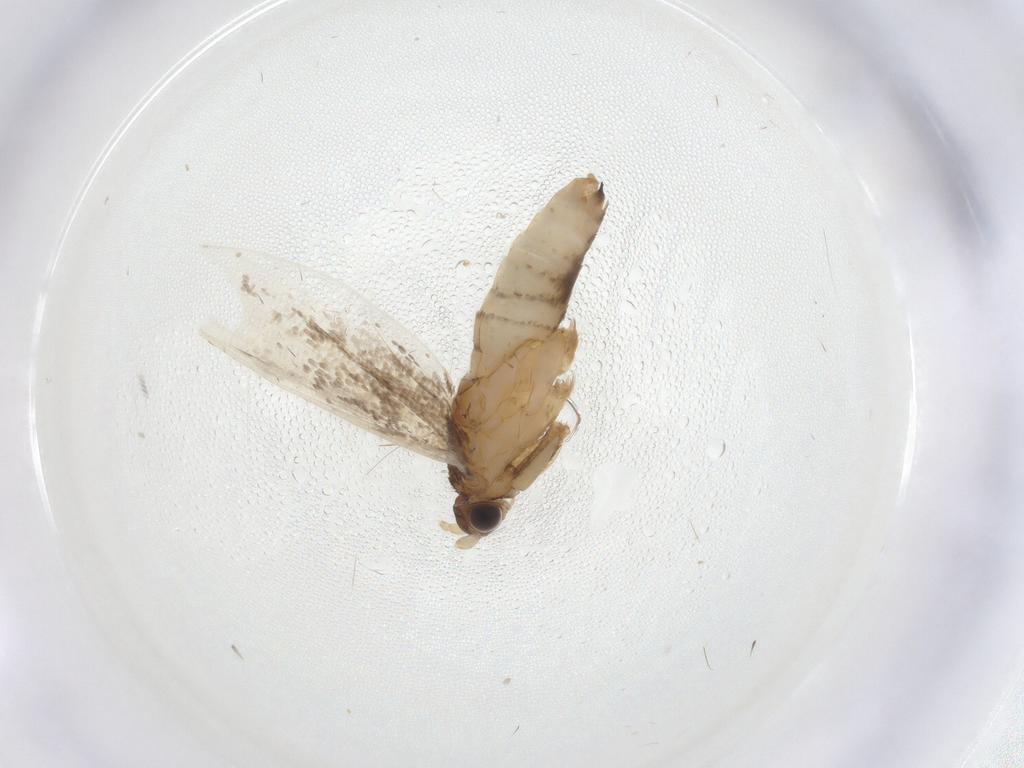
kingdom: Animalia
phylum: Arthropoda
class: Insecta
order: Lepidoptera
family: Tineidae
